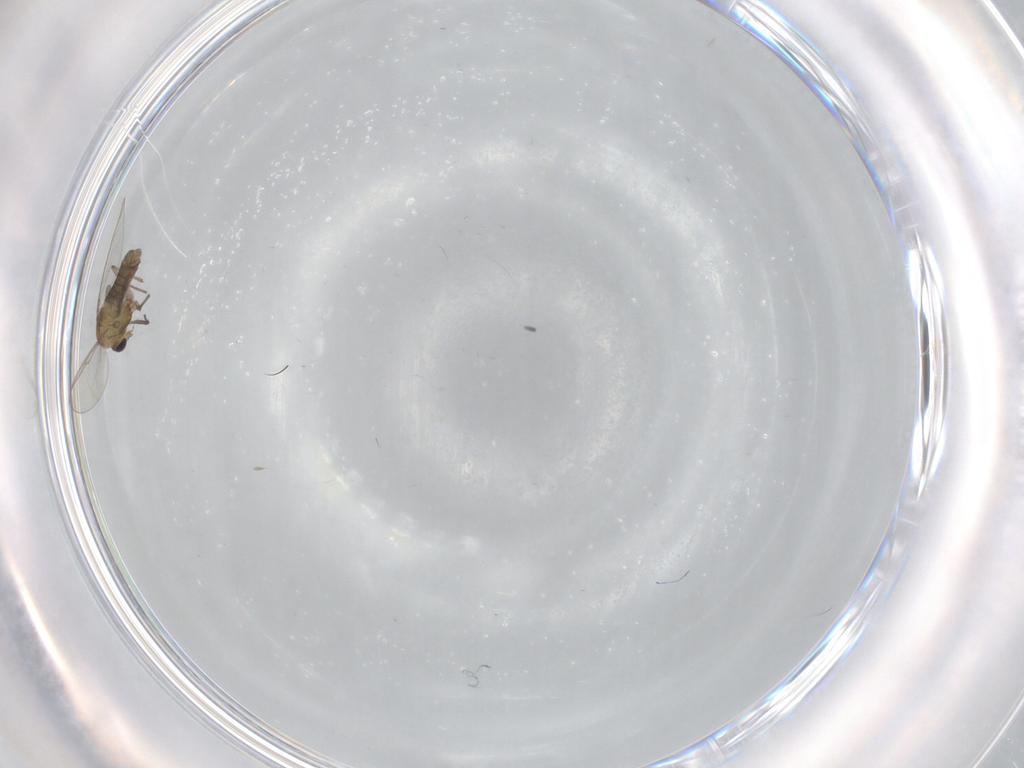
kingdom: Animalia
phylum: Arthropoda
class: Insecta
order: Diptera
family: Chironomidae
